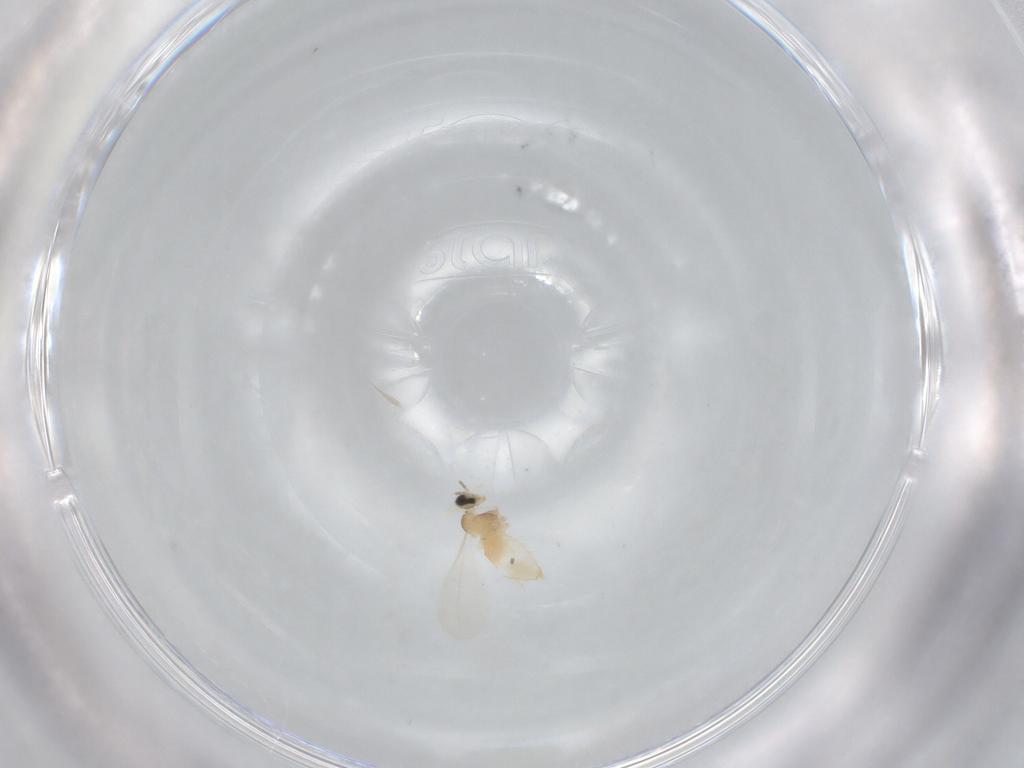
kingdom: Animalia
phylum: Arthropoda
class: Insecta
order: Diptera
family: Cecidomyiidae
